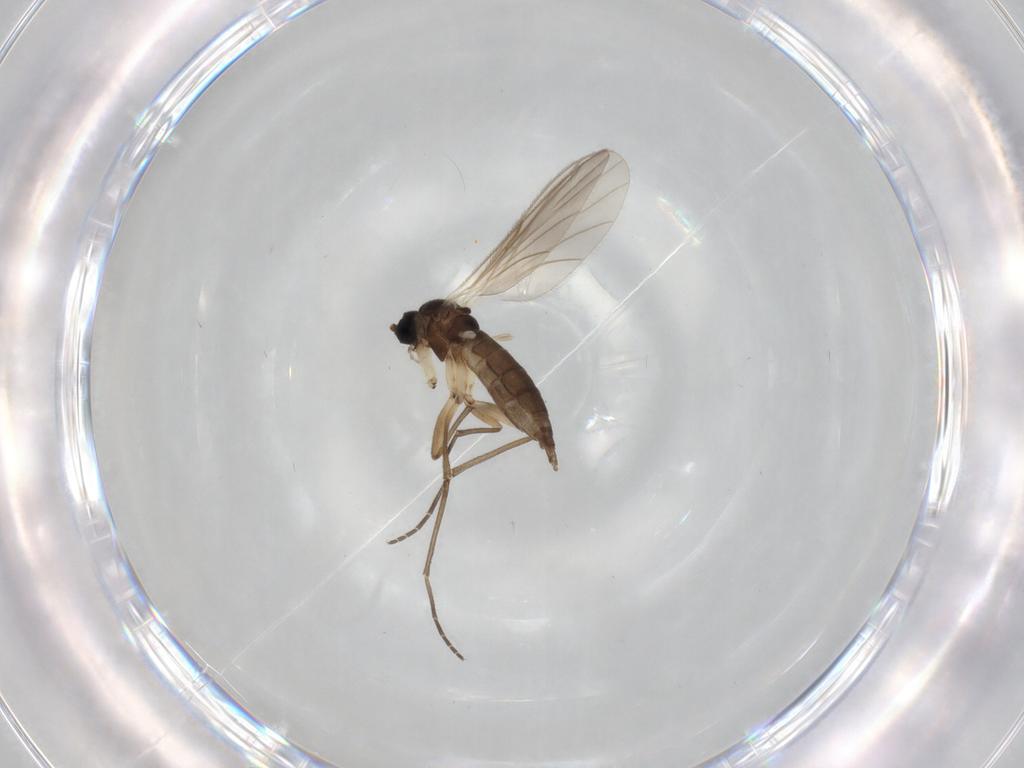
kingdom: Animalia
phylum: Arthropoda
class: Insecta
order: Diptera
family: Sciaridae
